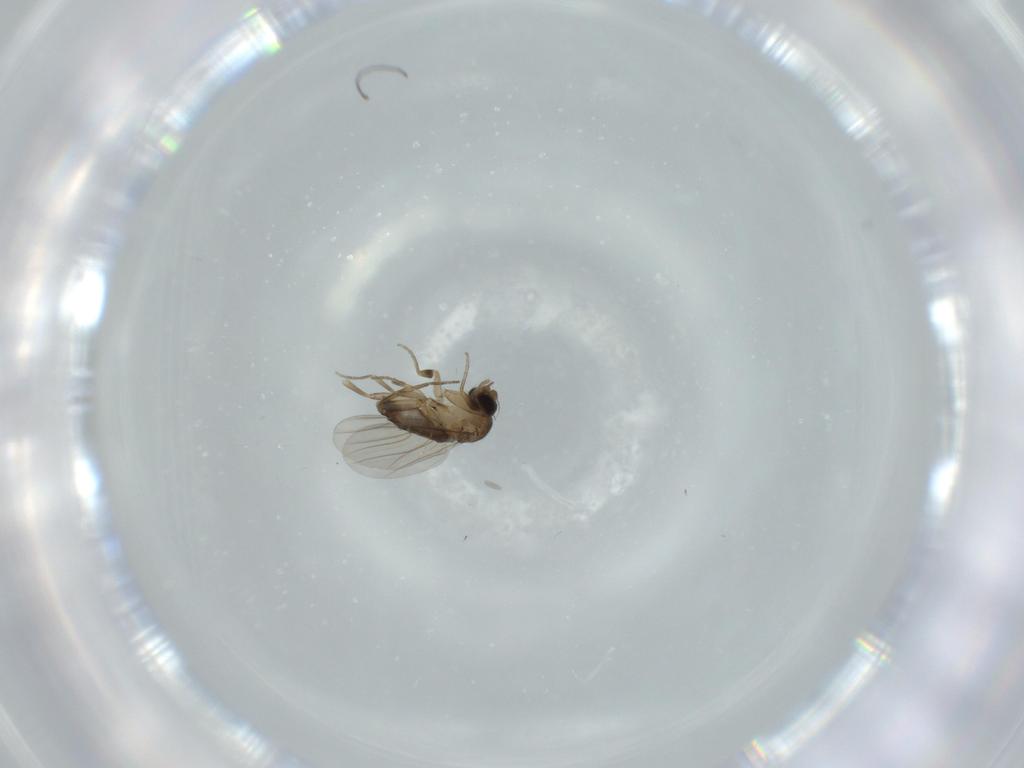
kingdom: Animalia
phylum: Arthropoda
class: Insecta
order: Diptera
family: Phoridae
